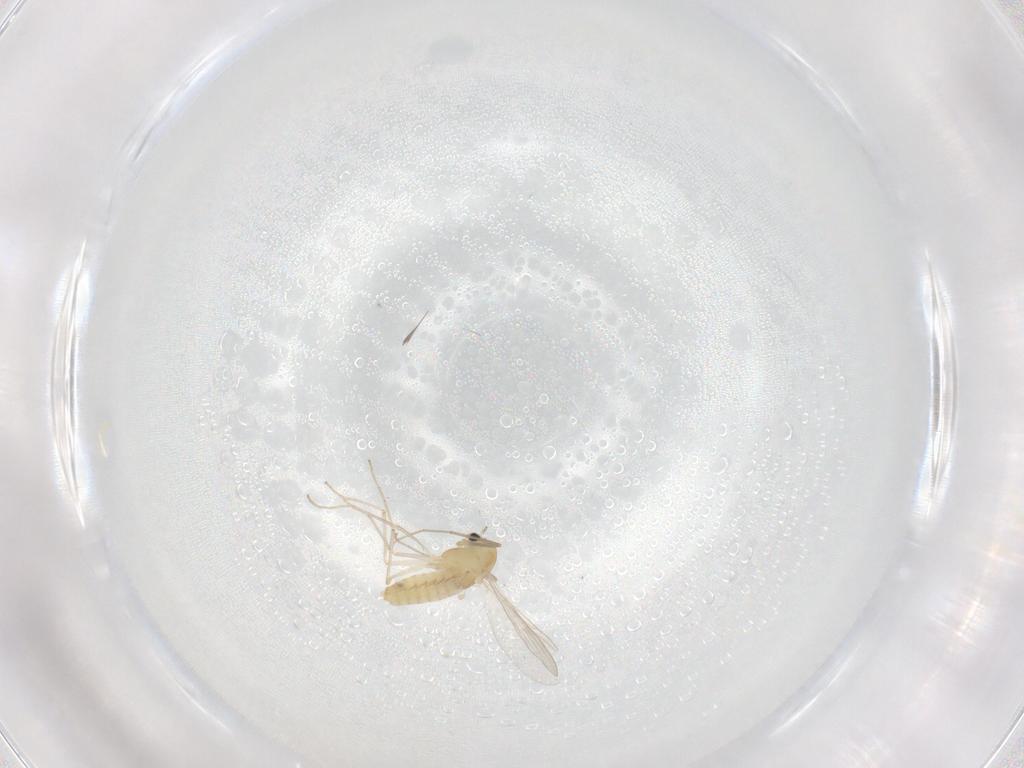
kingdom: Animalia
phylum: Arthropoda
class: Insecta
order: Diptera
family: Chironomidae
